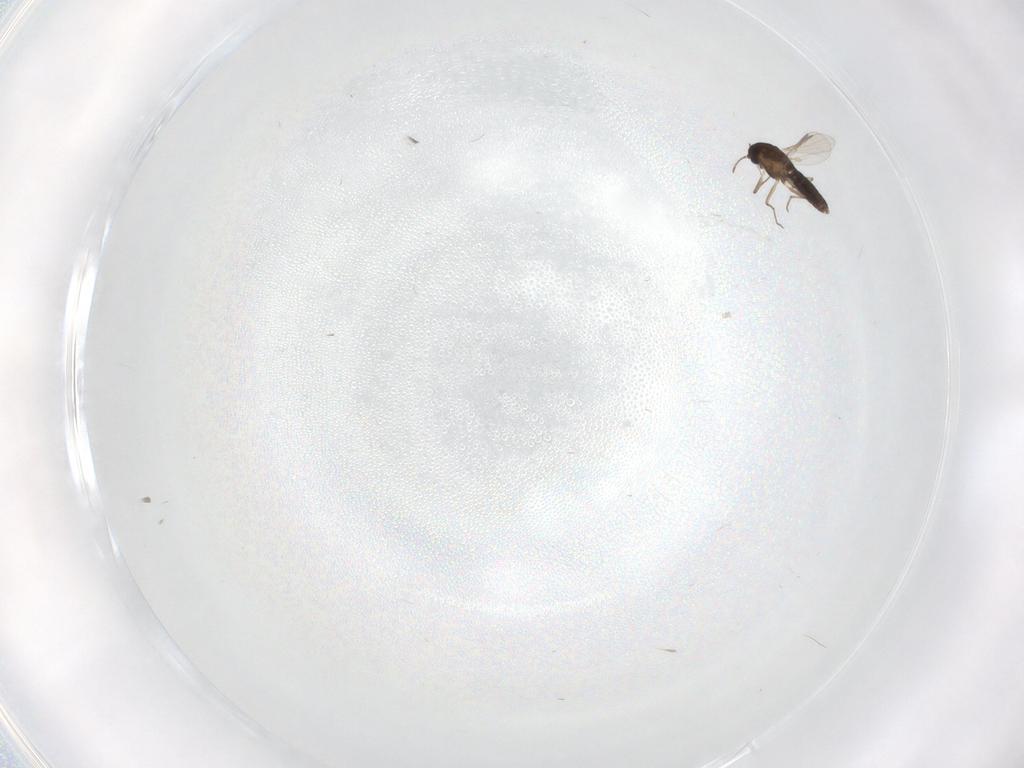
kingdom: Animalia
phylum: Arthropoda
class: Insecta
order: Diptera
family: Chironomidae
